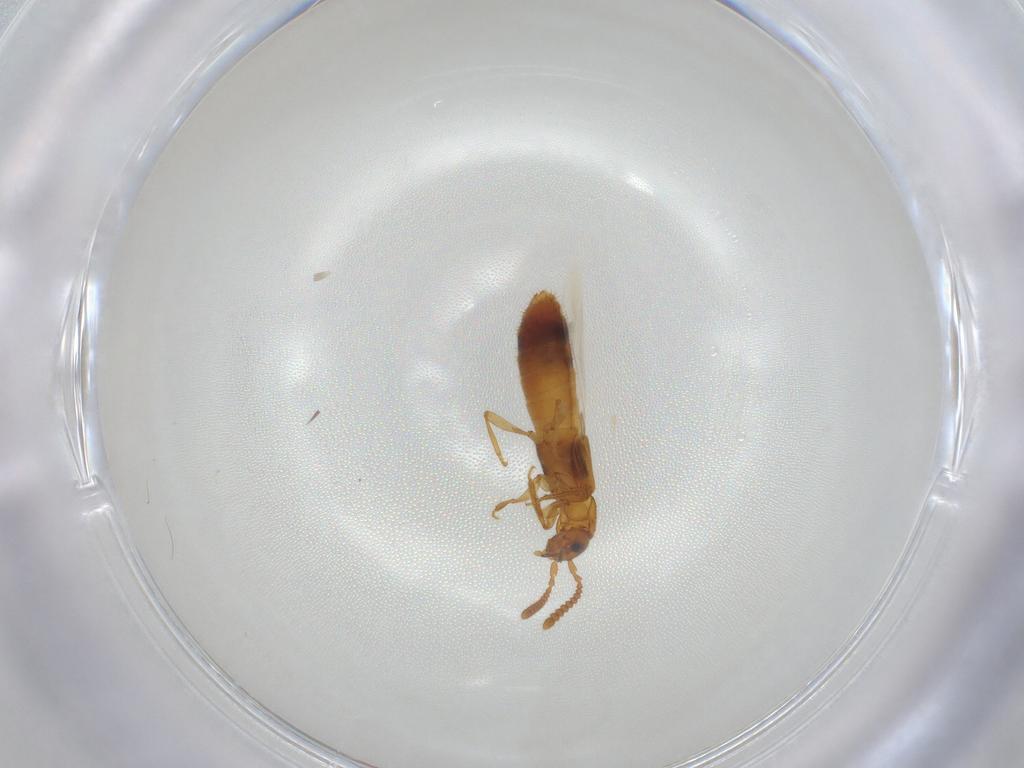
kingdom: Animalia
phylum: Arthropoda
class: Insecta
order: Coleoptera
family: Staphylinidae
